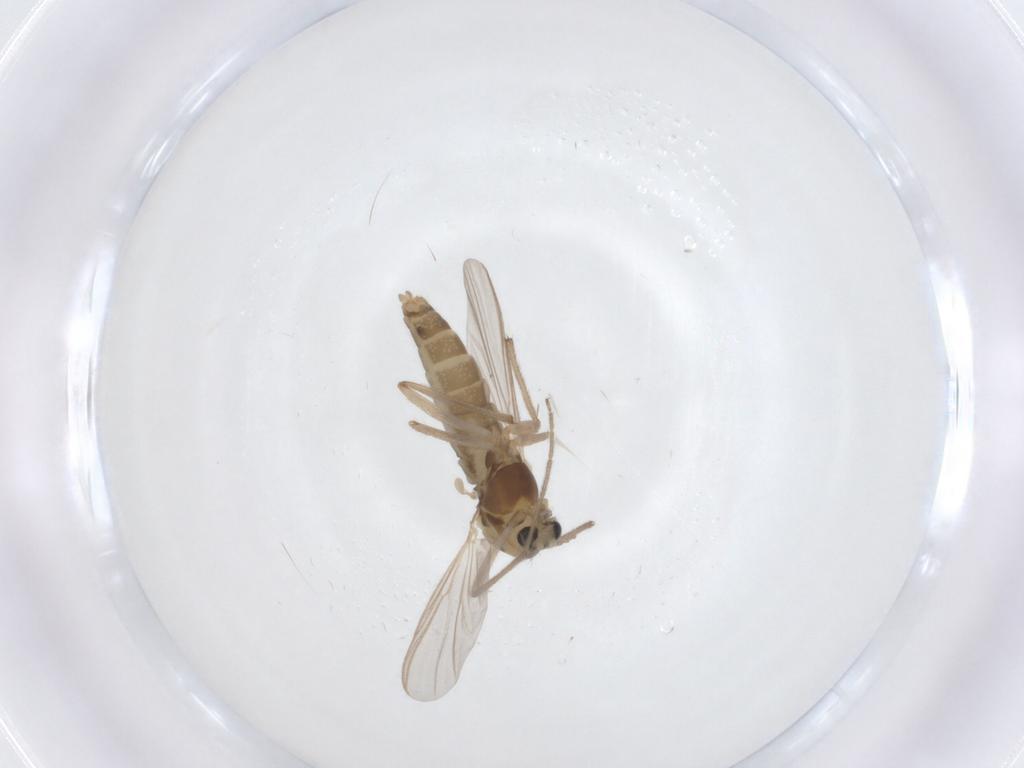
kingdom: Animalia
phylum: Arthropoda
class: Insecta
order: Diptera
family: Chironomidae
